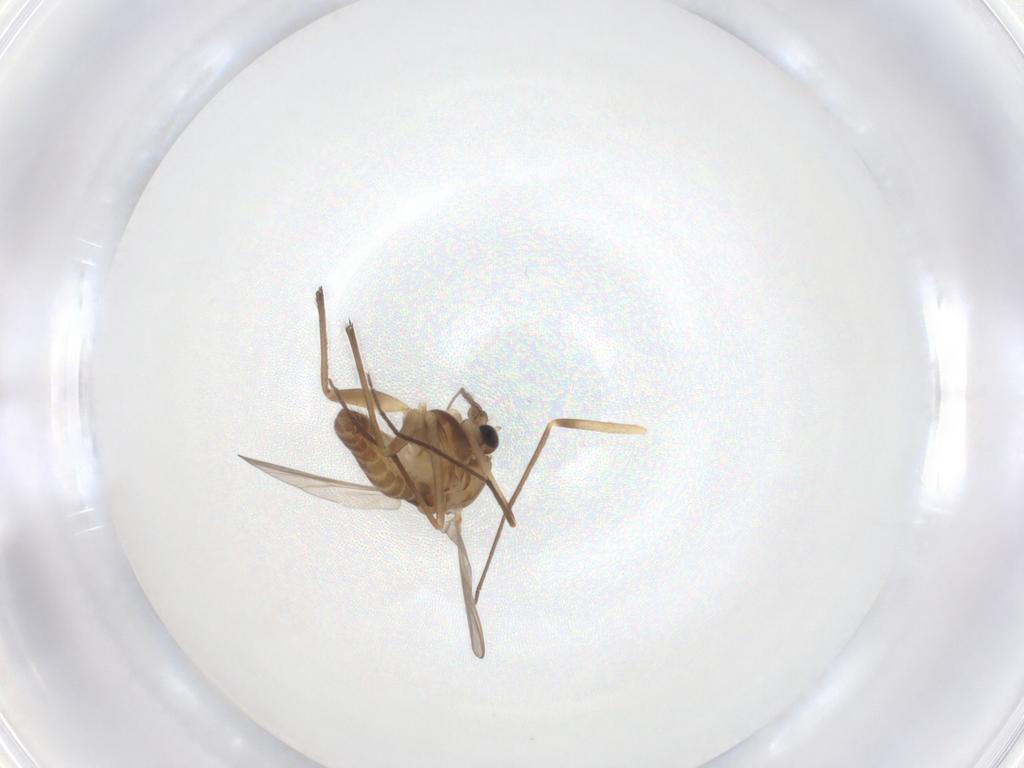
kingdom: Animalia
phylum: Arthropoda
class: Insecta
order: Diptera
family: Chironomidae
